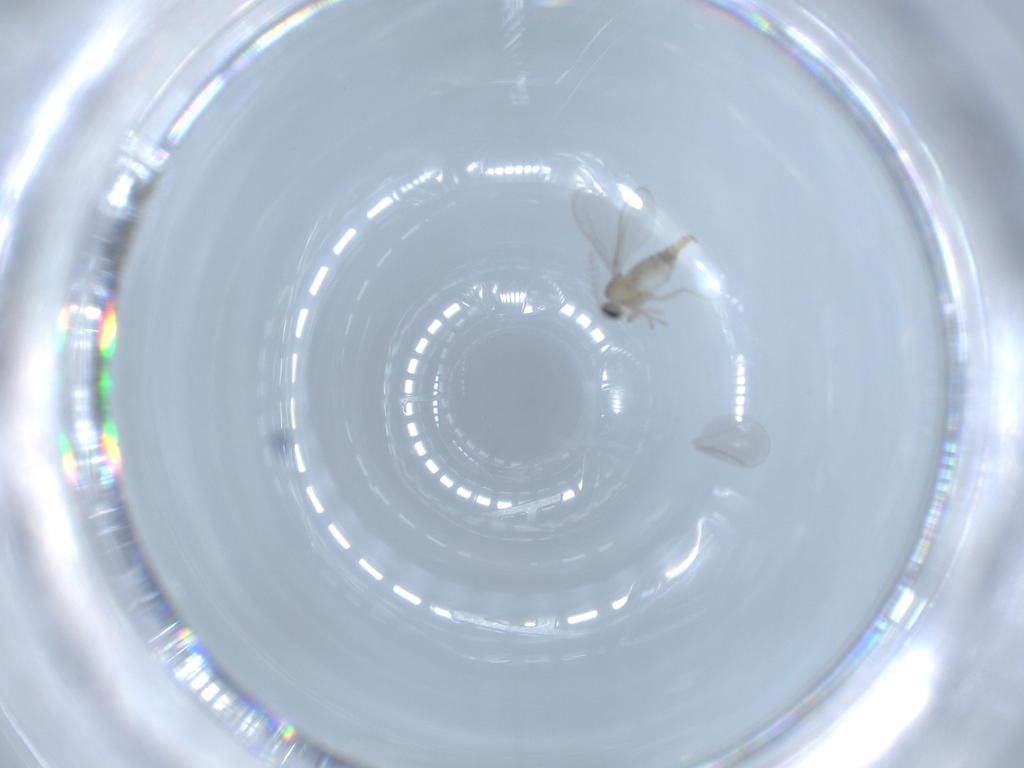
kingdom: Animalia
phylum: Arthropoda
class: Insecta
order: Diptera
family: Cecidomyiidae
